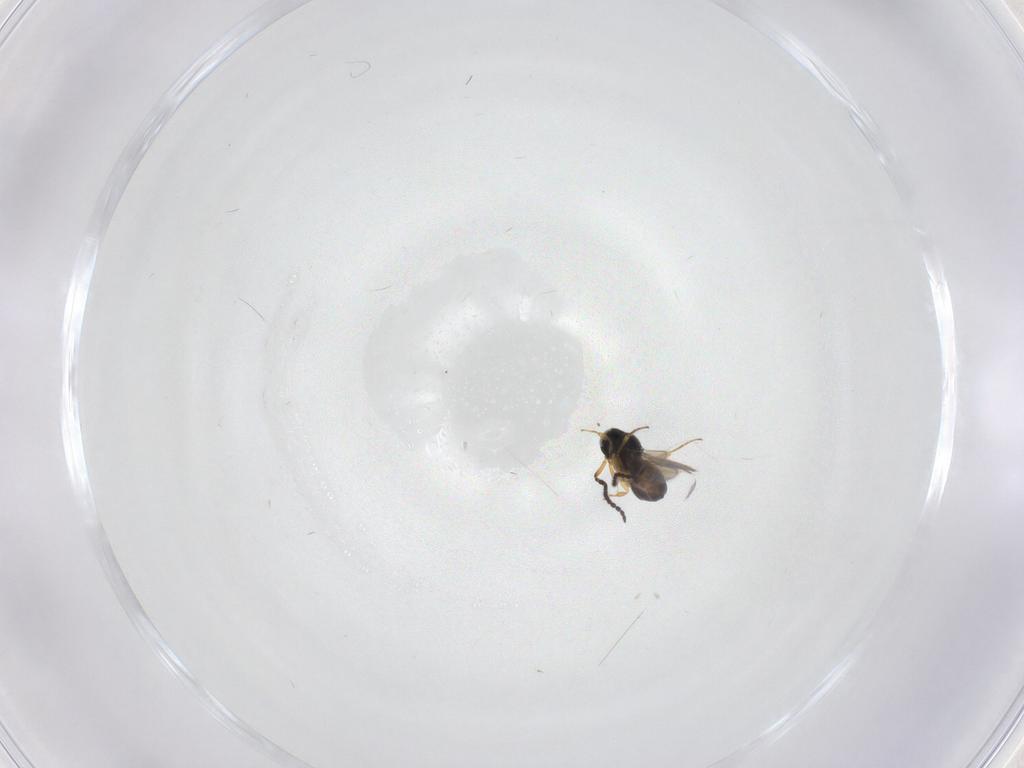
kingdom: Animalia
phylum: Arthropoda
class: Insecta
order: Hymenoptera
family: Scelionidae
